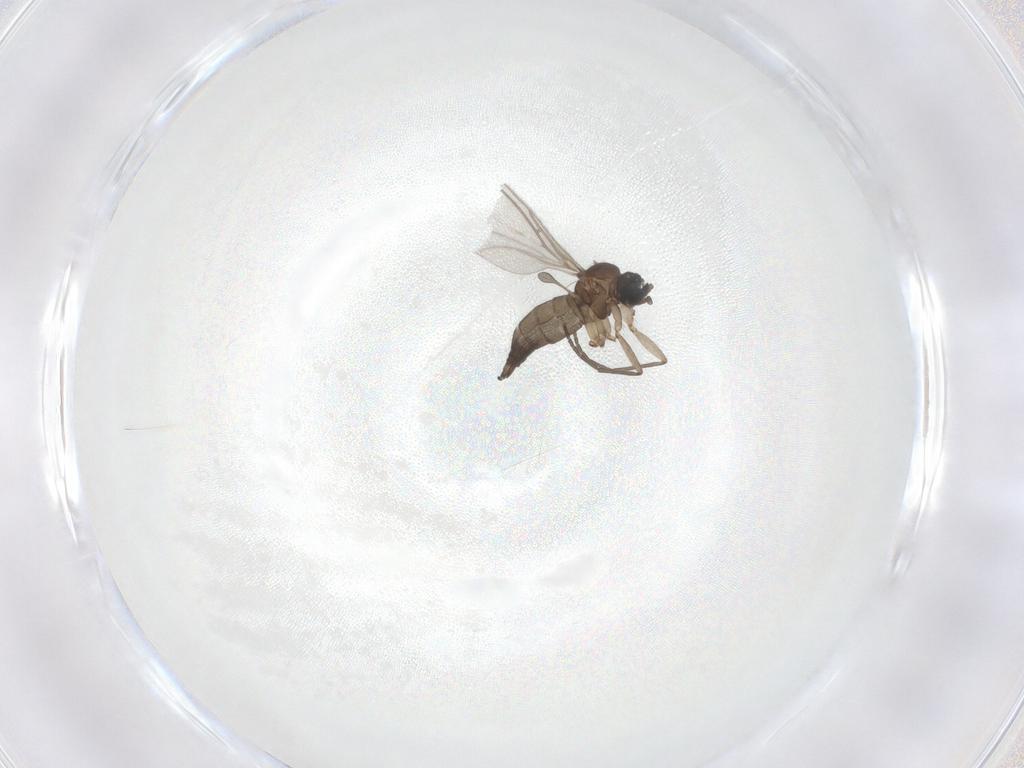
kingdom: Animalia
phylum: Arthropoda
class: Insecta
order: Diptera
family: Sciaridae
